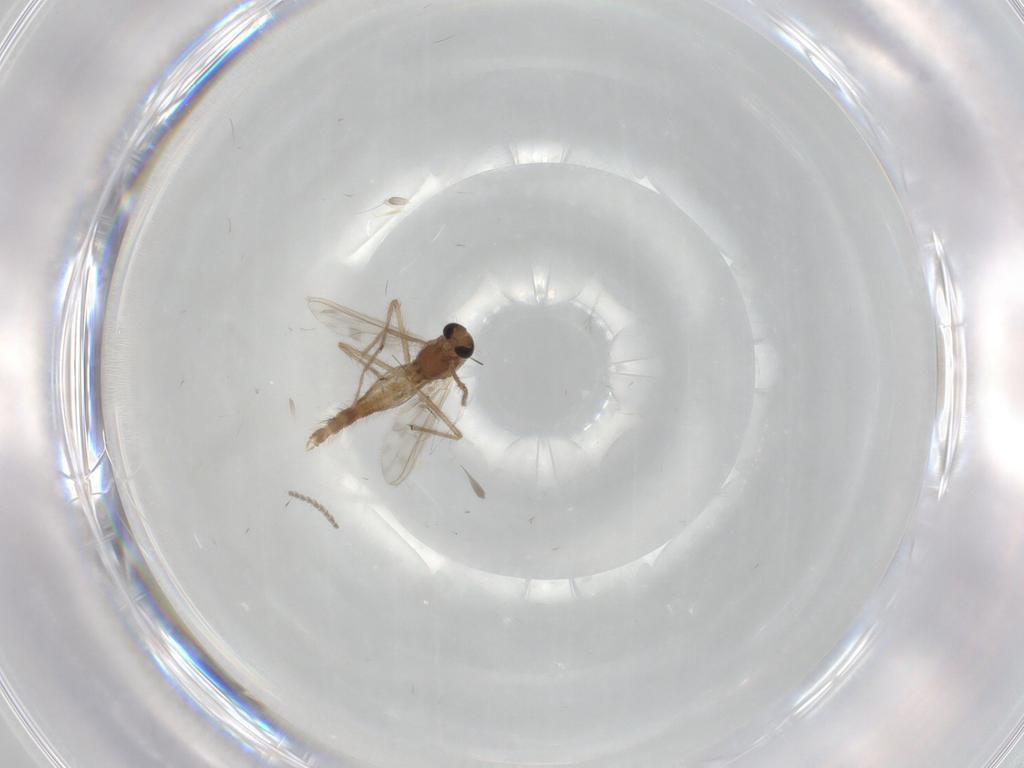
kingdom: Animalia
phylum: Arthropoda
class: Insecta
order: Diptera
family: Chironomidae
